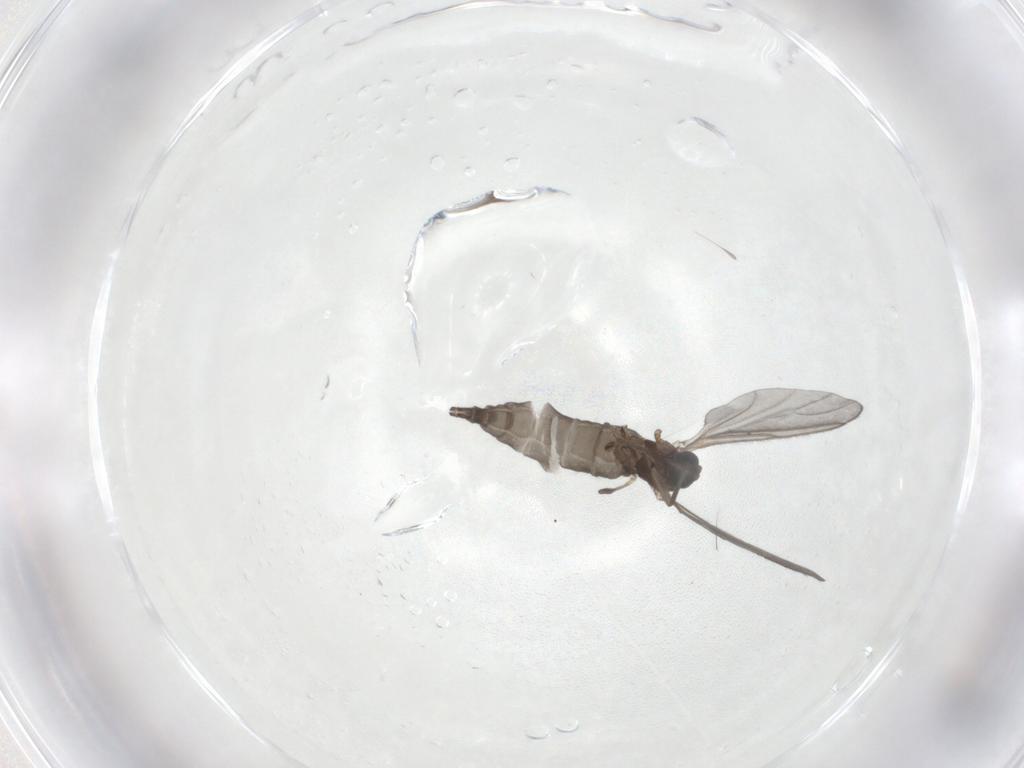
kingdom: Animalia
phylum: Arthropoda
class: Insecta
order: Diptera
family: Sciaridae
